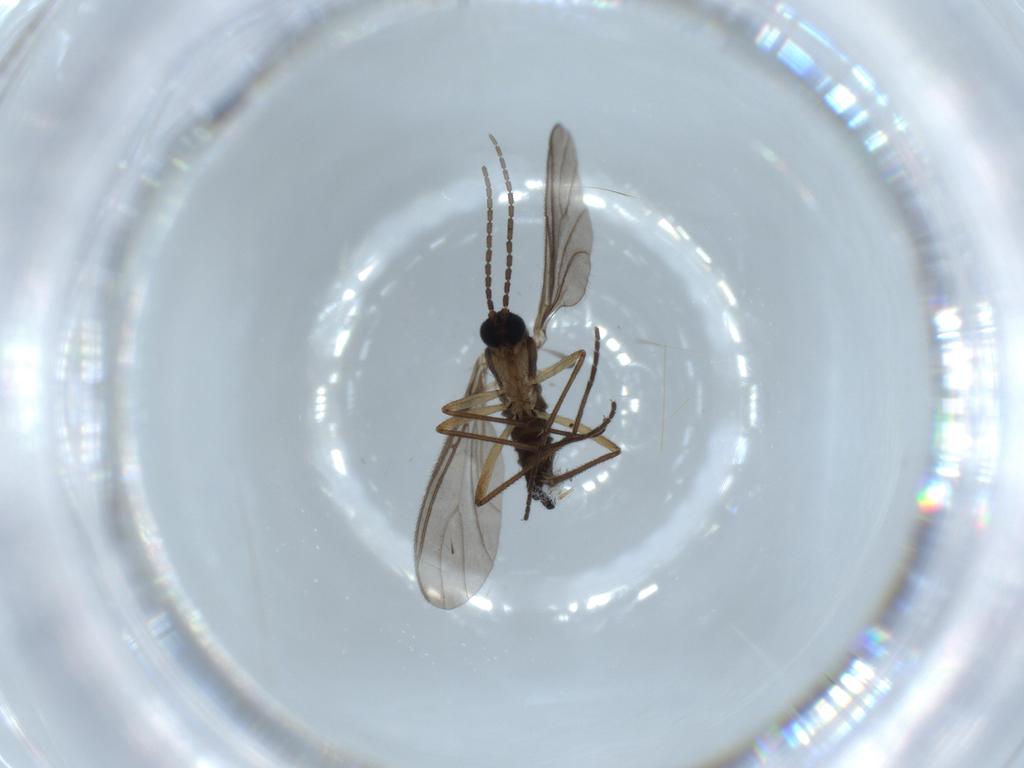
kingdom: Animalia
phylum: Arthropoda
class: Insecta
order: Diptera
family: Sciaridae
